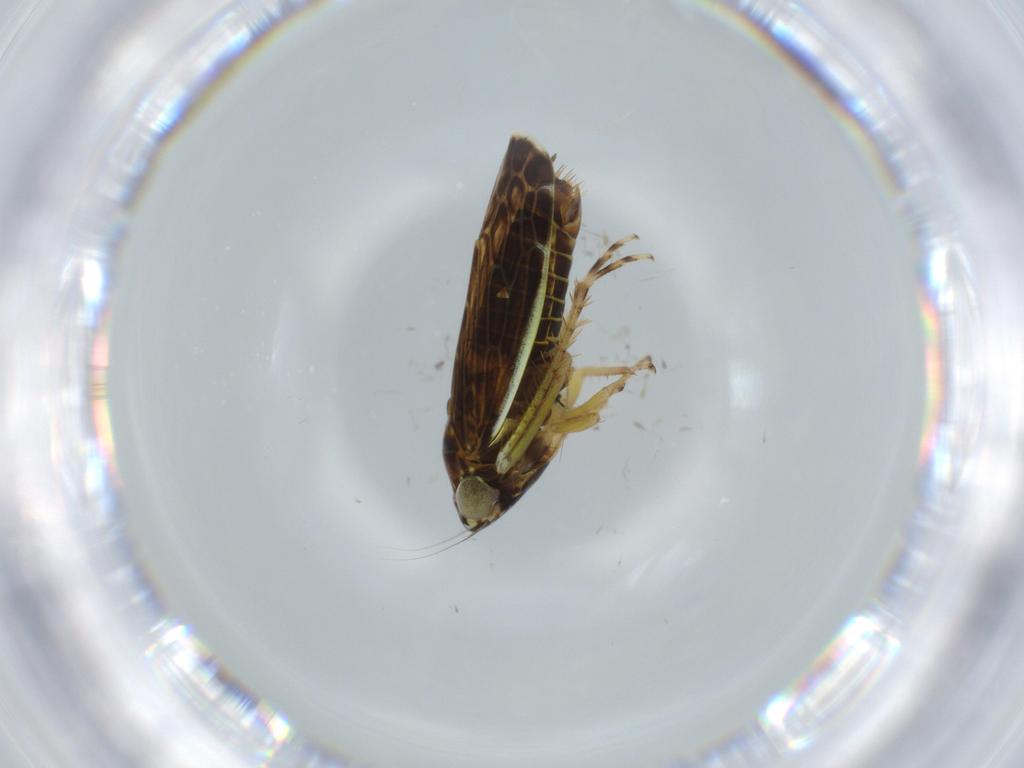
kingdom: Animalia
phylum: Arthropoda
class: Insecta
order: Hemiptera
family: Cicadellidae
